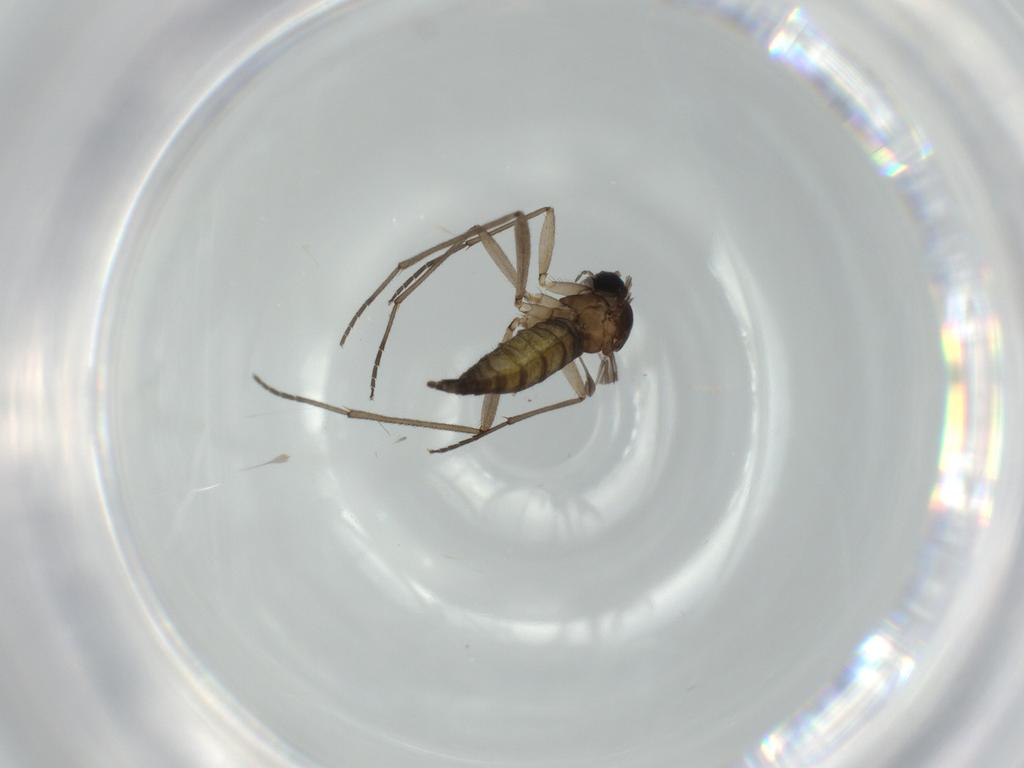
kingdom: Animalia
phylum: Arthropoda
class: Insecta
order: Diptera
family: Sciaridae
